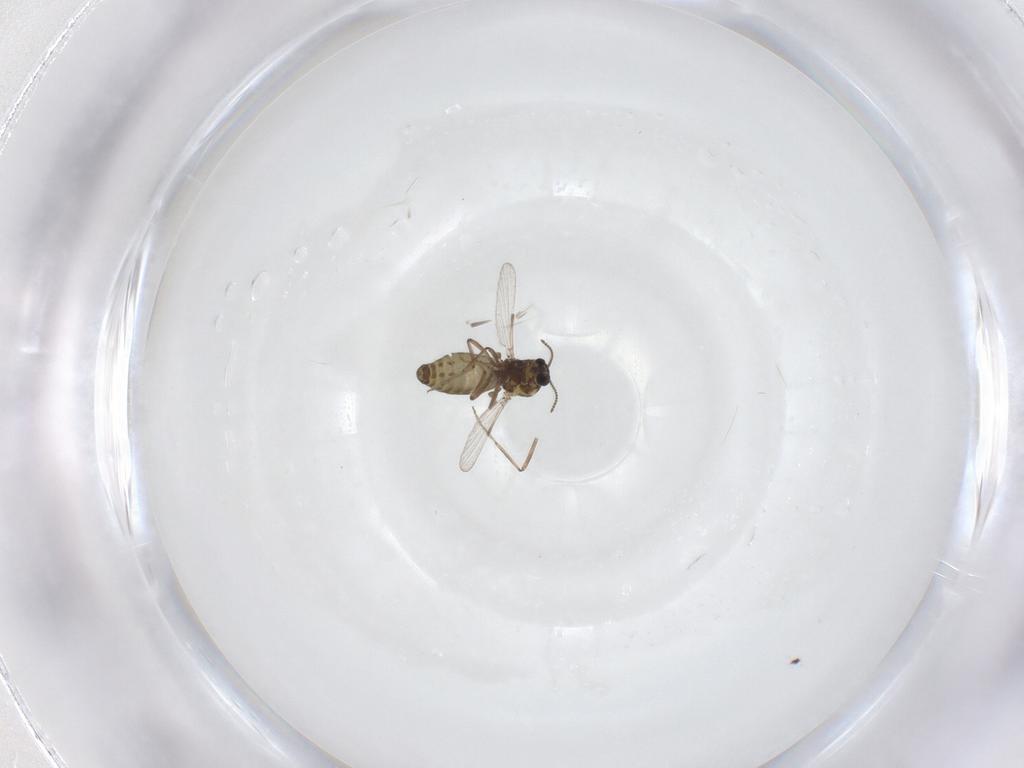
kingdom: Animalia
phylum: Arthropoda
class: Insecta
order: Diptera
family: Ceratopogonidae
